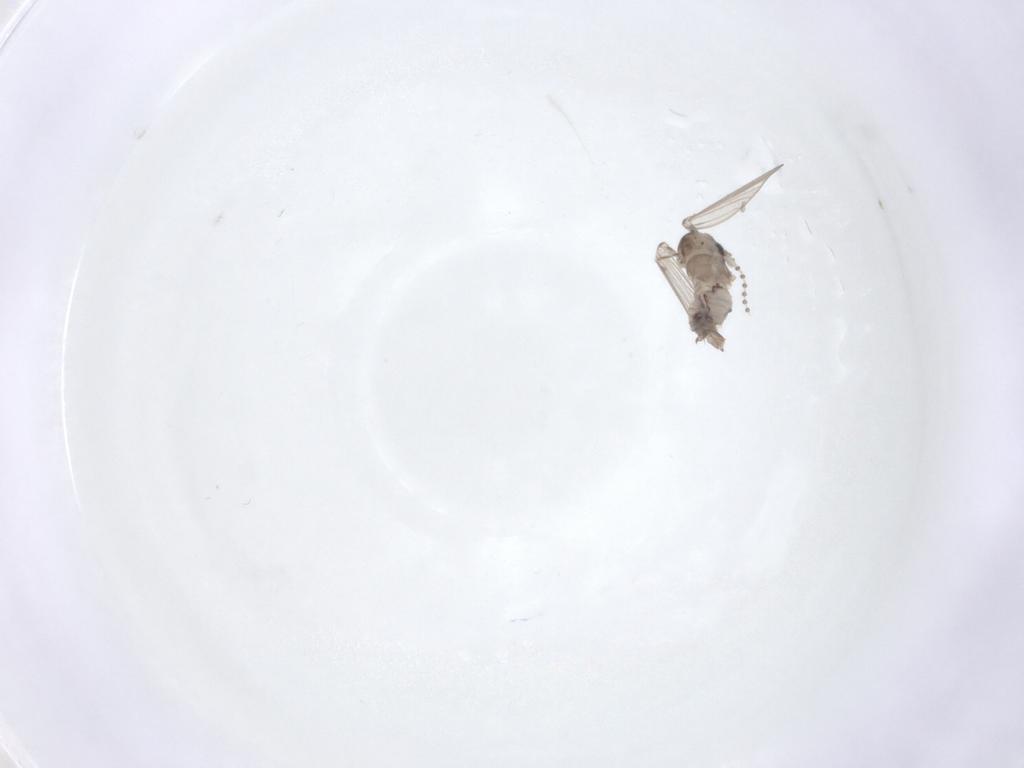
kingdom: Animalia
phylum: Arthropoda
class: Insecta
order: Diptera
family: Psychodidae
